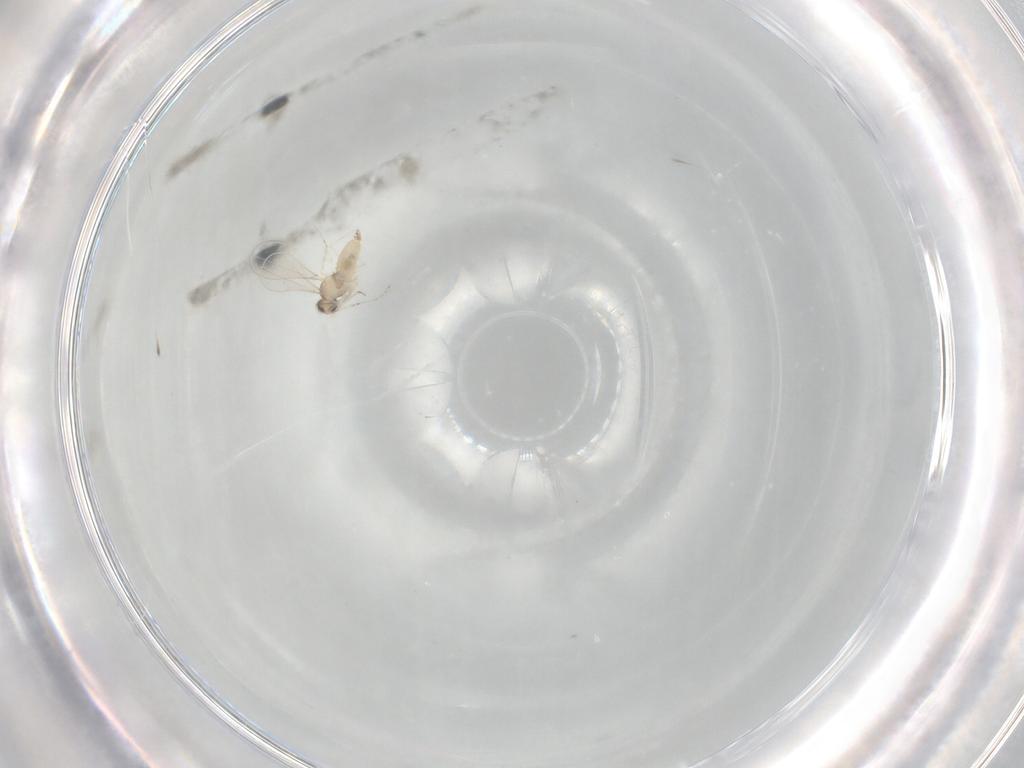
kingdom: Animalia
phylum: Arthropoda
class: Insecta
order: Diptera
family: Cecidomyiidae
